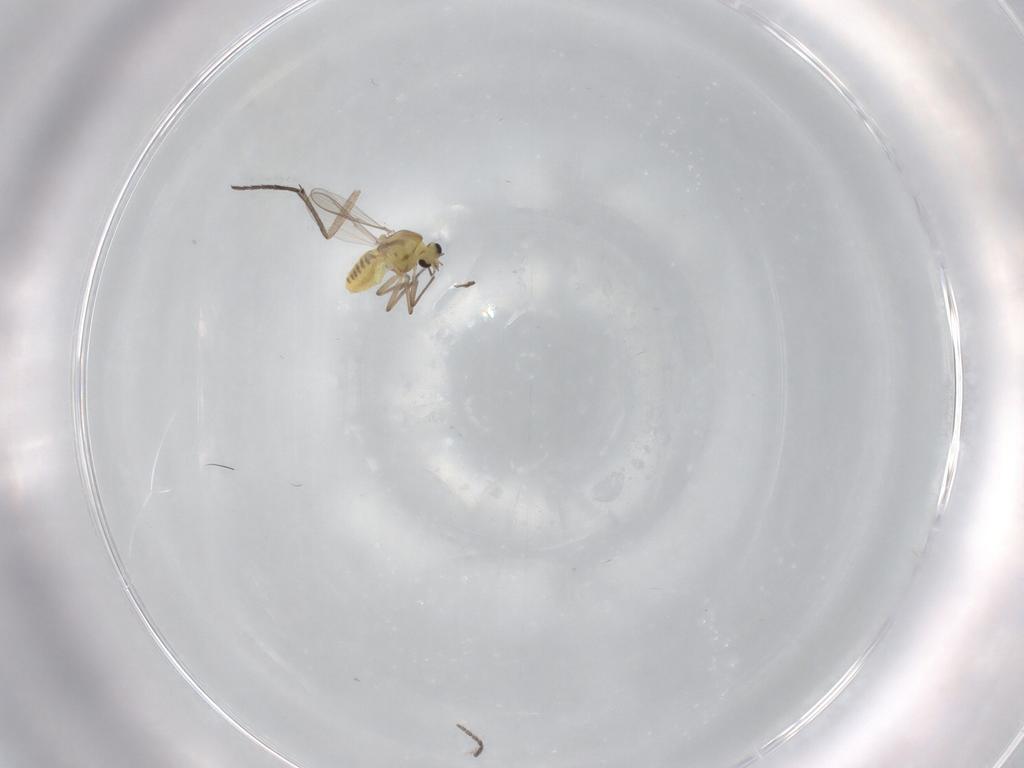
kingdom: Animalia
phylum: Arthropoda
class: Insecta
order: Diptera
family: Chironomidae
